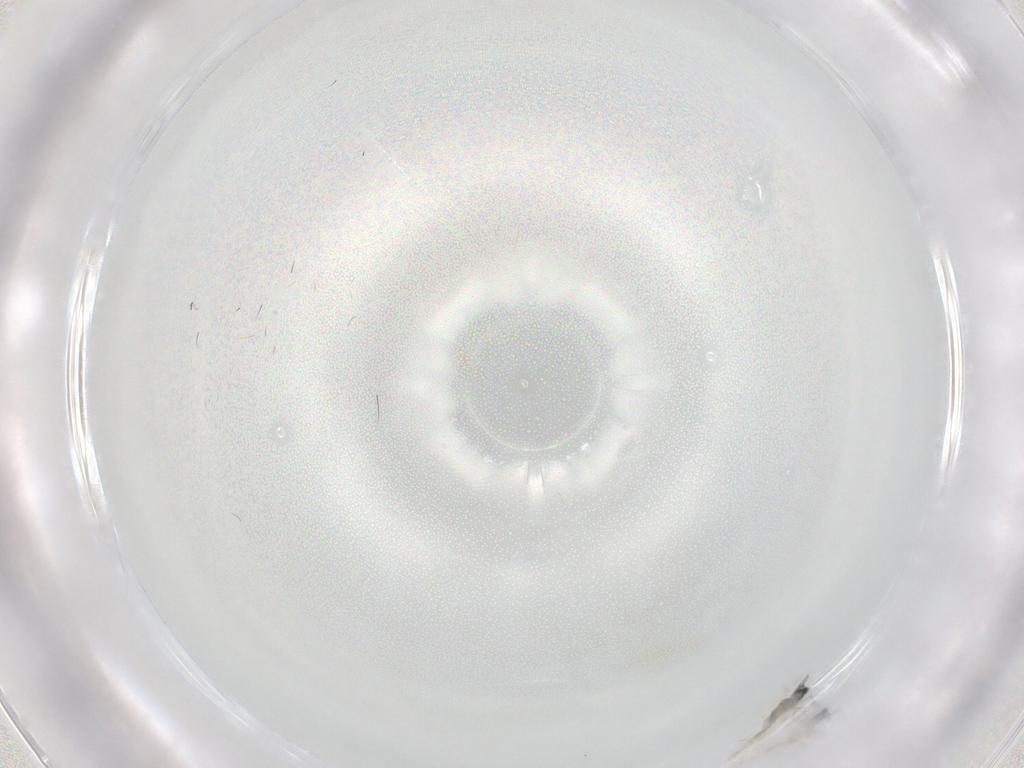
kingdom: Animalia
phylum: Arthropoda
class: Insecta
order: Diptera
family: Cecidomyiidae
